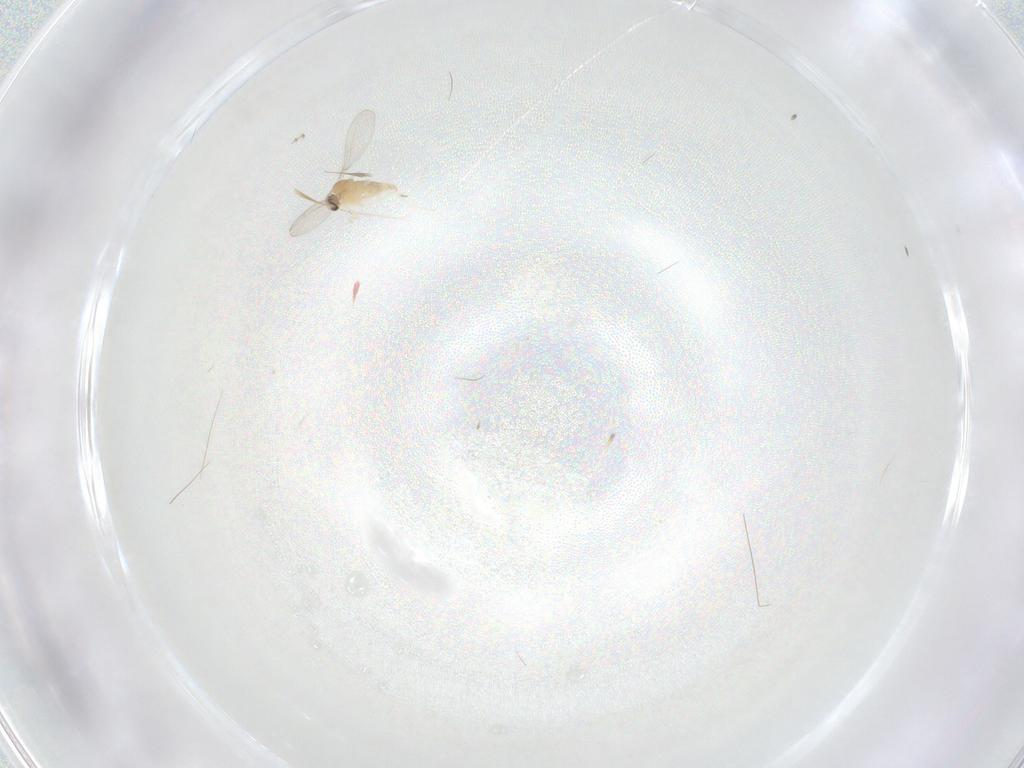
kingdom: Animalia
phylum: Arthropoda
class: Insecta
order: Diptera
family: Cecidomyiidae
